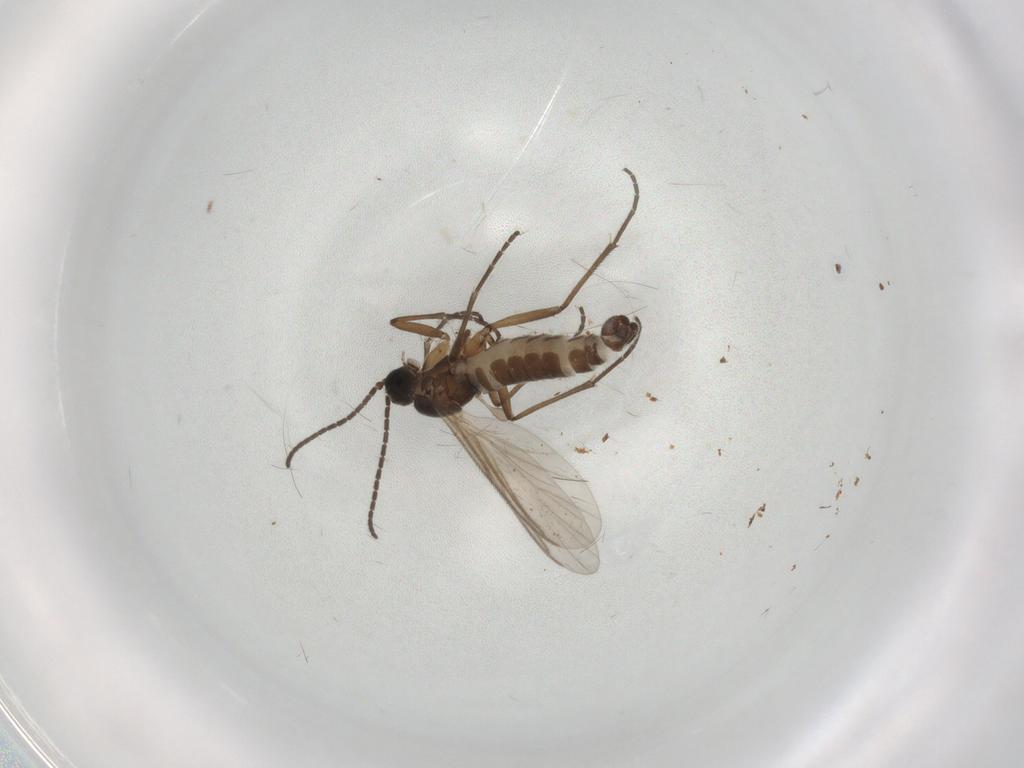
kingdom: Animalia
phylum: Arthropoda
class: Insecta
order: Diptera
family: Sciaridae
